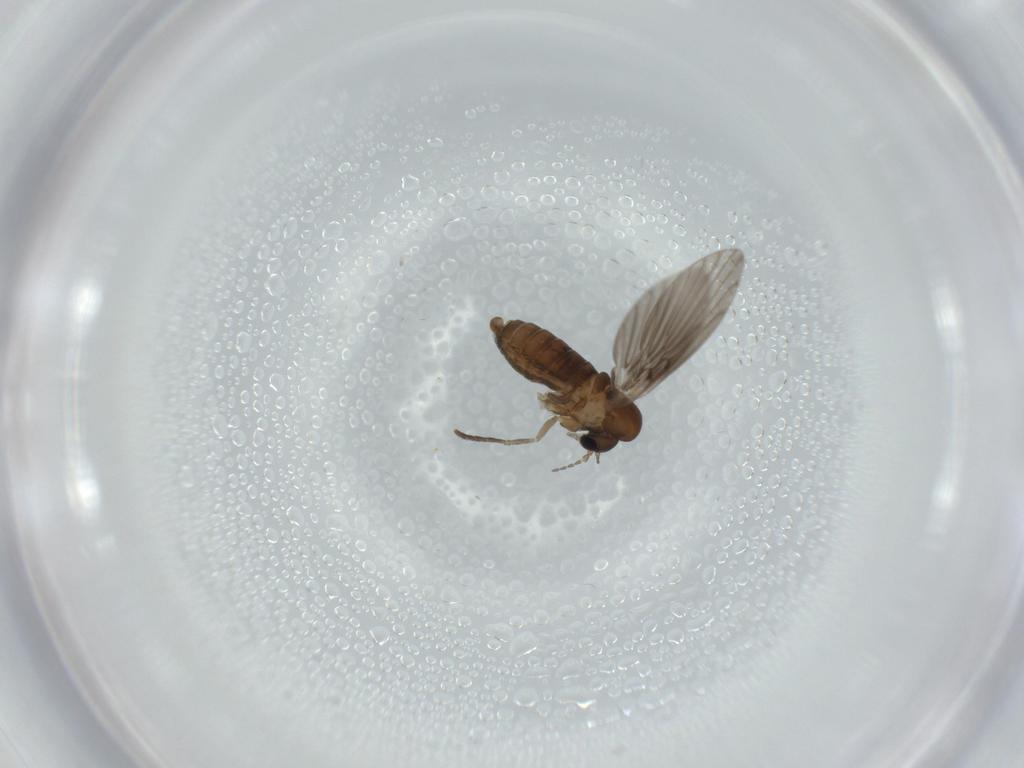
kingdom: Animalia
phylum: Arthropoda
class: Insecta
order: Diptera
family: Psychodidae
